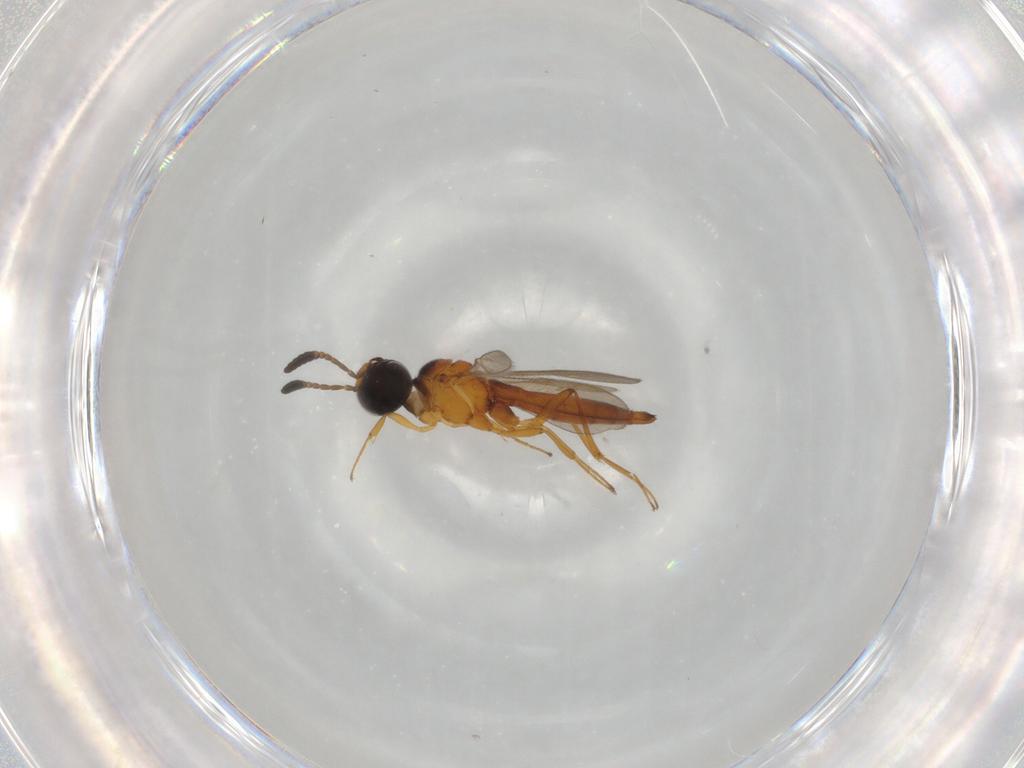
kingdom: Animalia
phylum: Arthropoda
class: Insecta
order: Hymenoptera
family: Scelionidae
